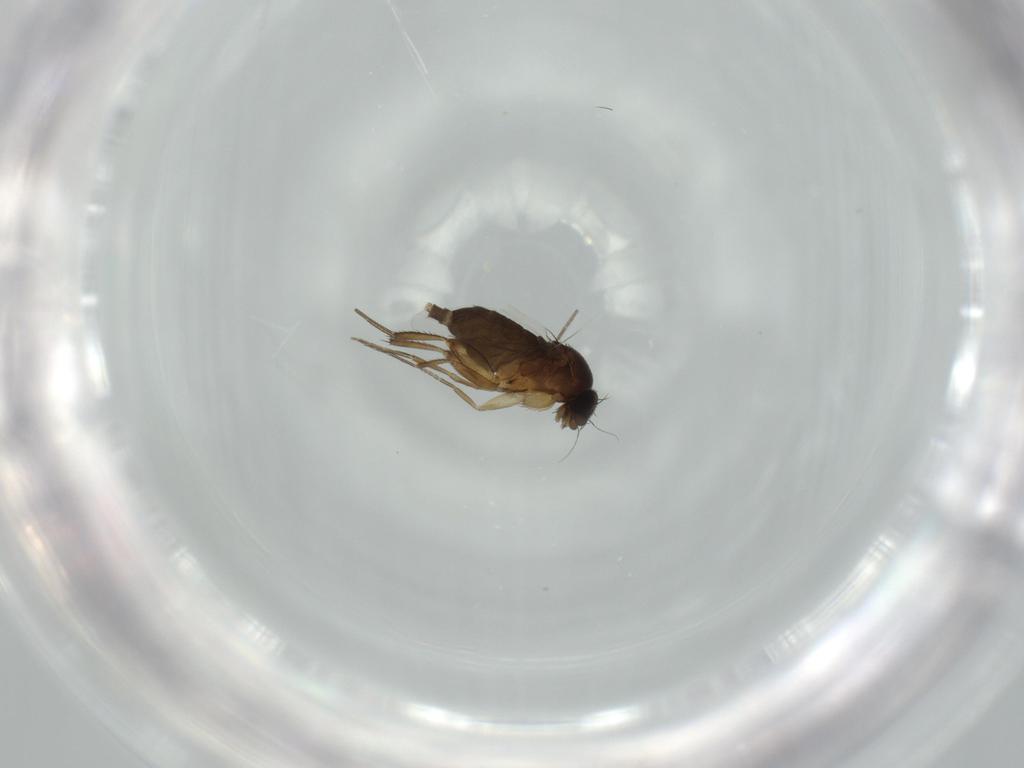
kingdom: Animalia
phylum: Arthropoda
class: Insecta
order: Diptera
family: Phoridae
